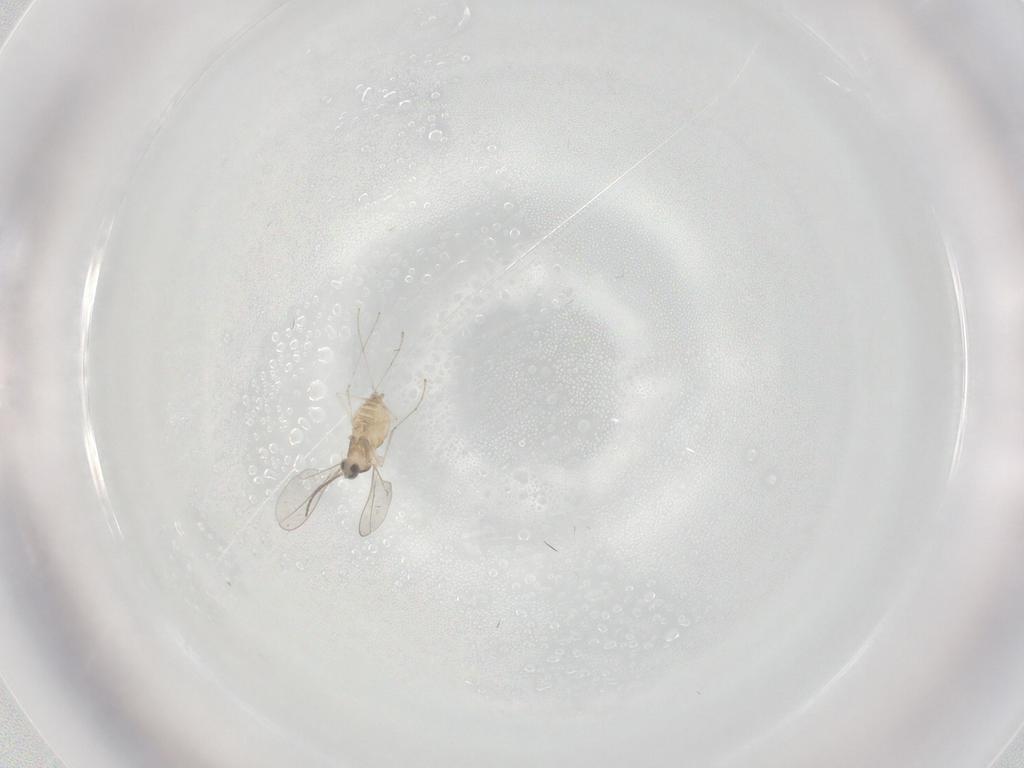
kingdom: Animalia
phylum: Arthropoda
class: Insecta
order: Diptera
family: Cecidomyiidae
